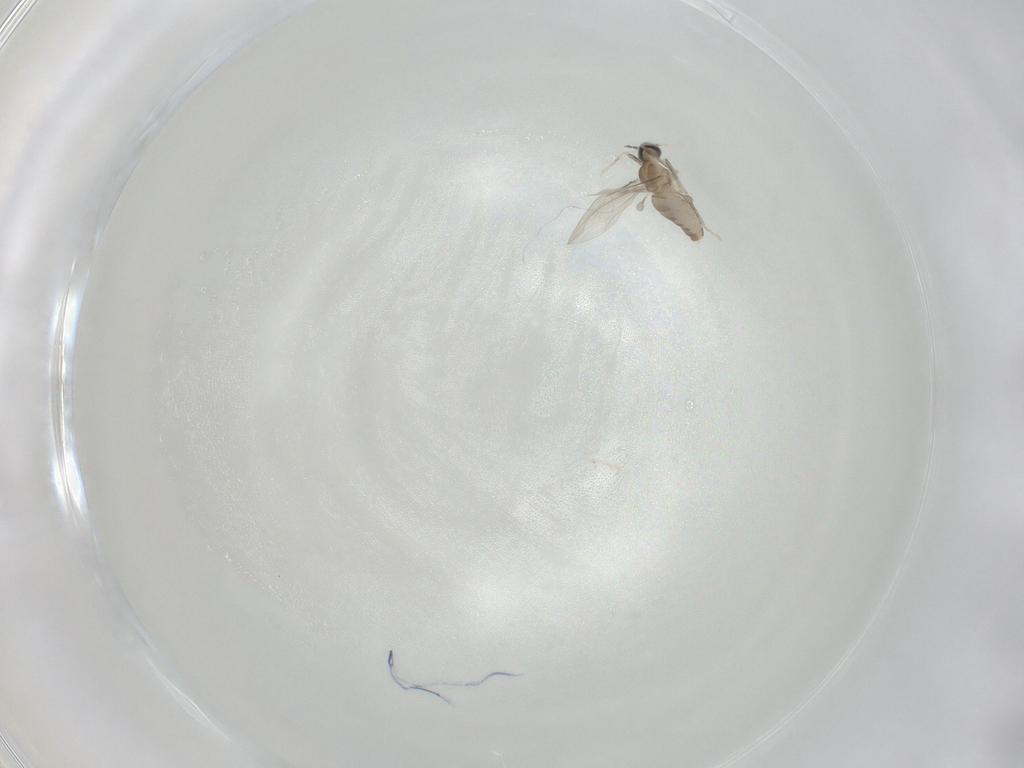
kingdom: Animalia
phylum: Arthropoda
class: Insecta
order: Diptera
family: Cecidomyiidae
